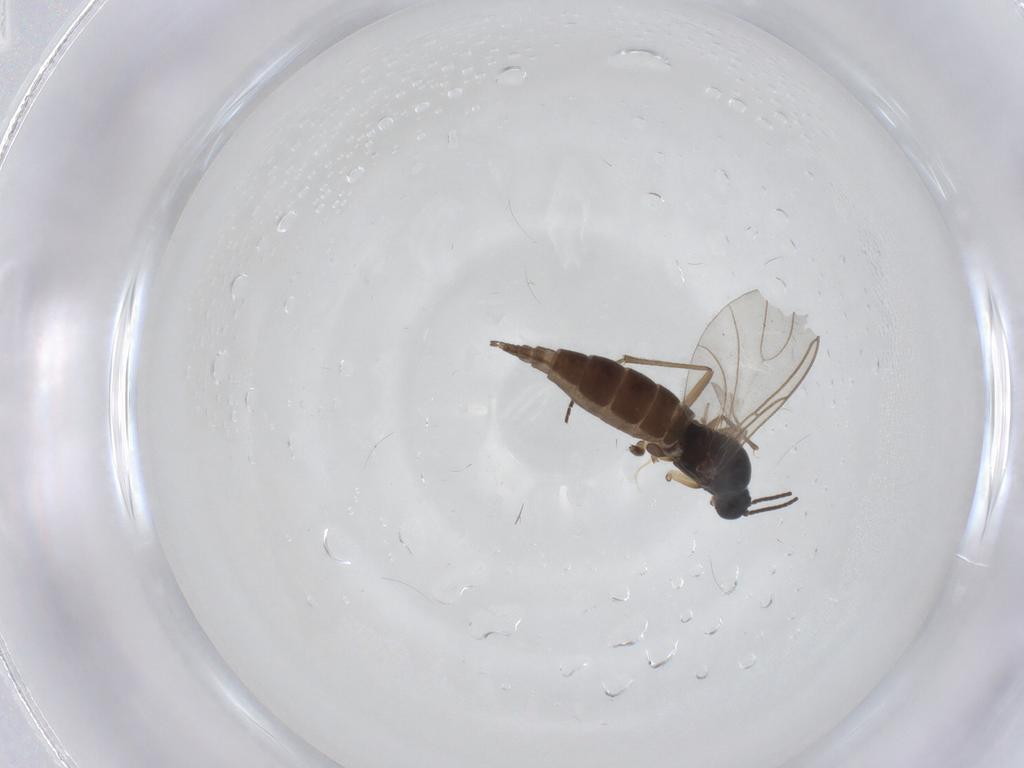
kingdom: Animalia
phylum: Arthropoda
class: Insecta
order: Diptera
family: Sciaridae
